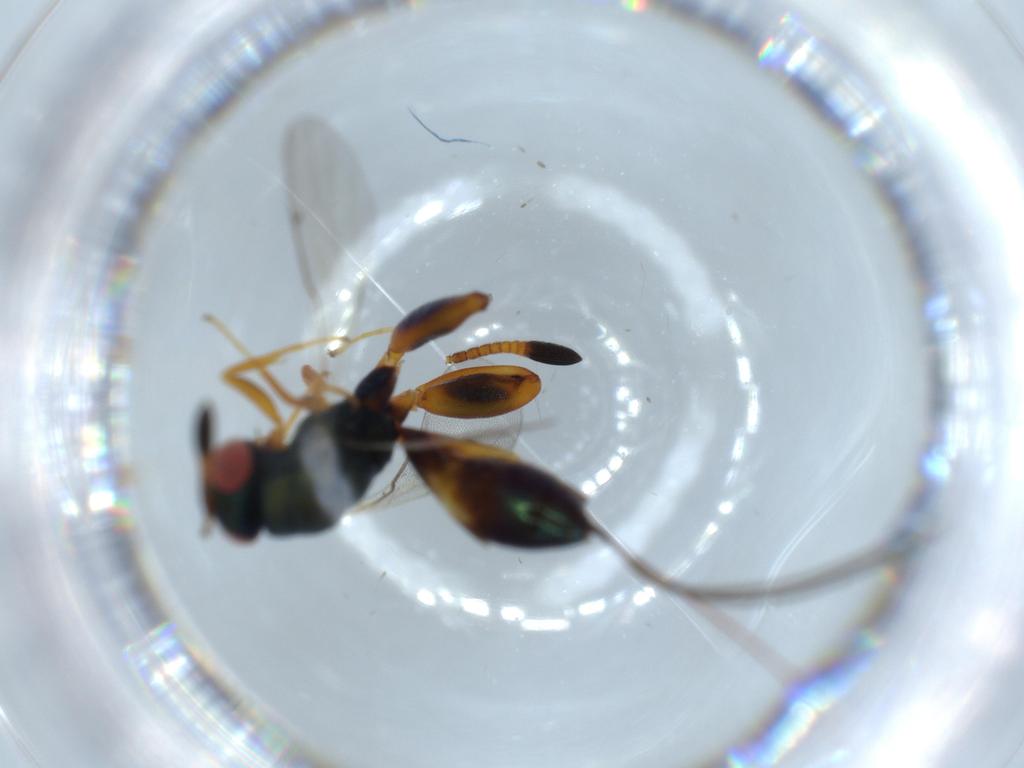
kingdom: Animalia
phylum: Arthropoda
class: Insecta
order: Hymenoptera
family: Torymidae
